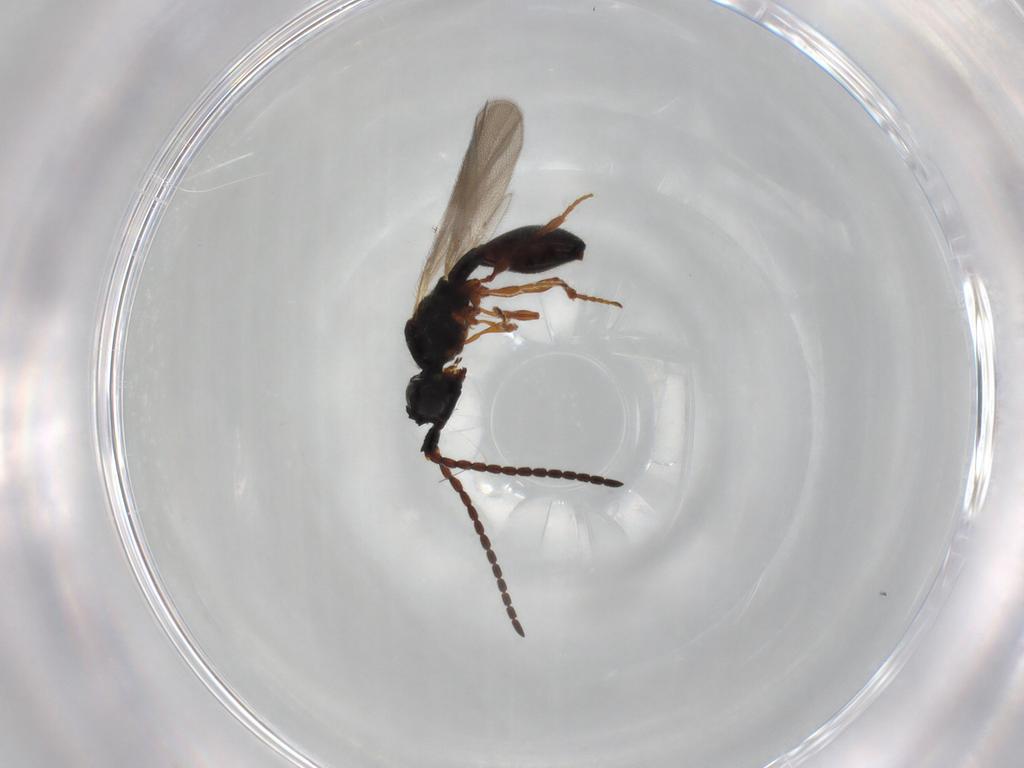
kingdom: Animalia
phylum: Arthropoda
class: Insecta
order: Hymenoptera
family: Diapriidae
